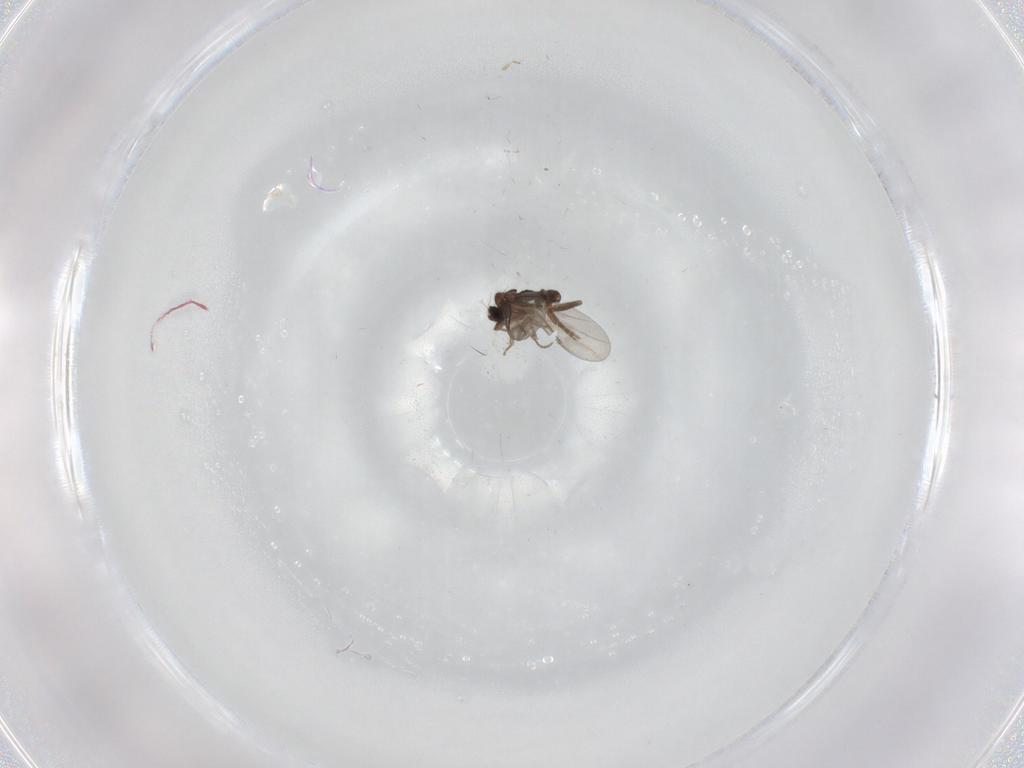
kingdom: Animalia
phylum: Arthropoda
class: Insecta
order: Diptera
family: Phoridae
